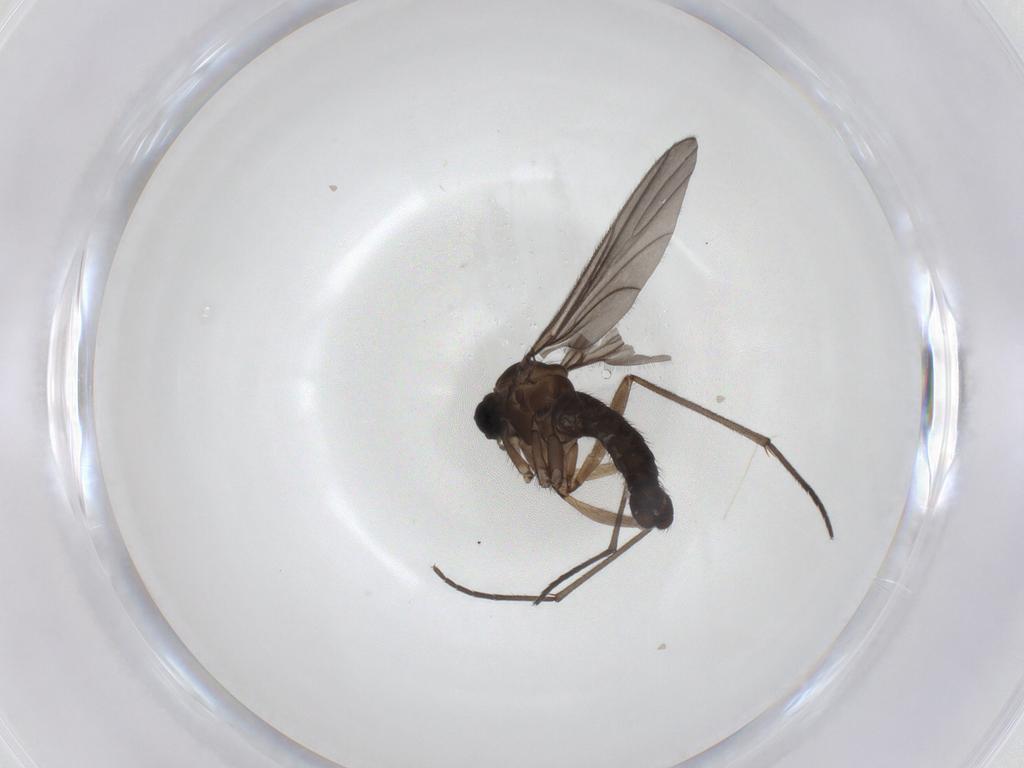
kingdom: Animalia
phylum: Arthropoda
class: Insecta
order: Diptera
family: Sciaridae
